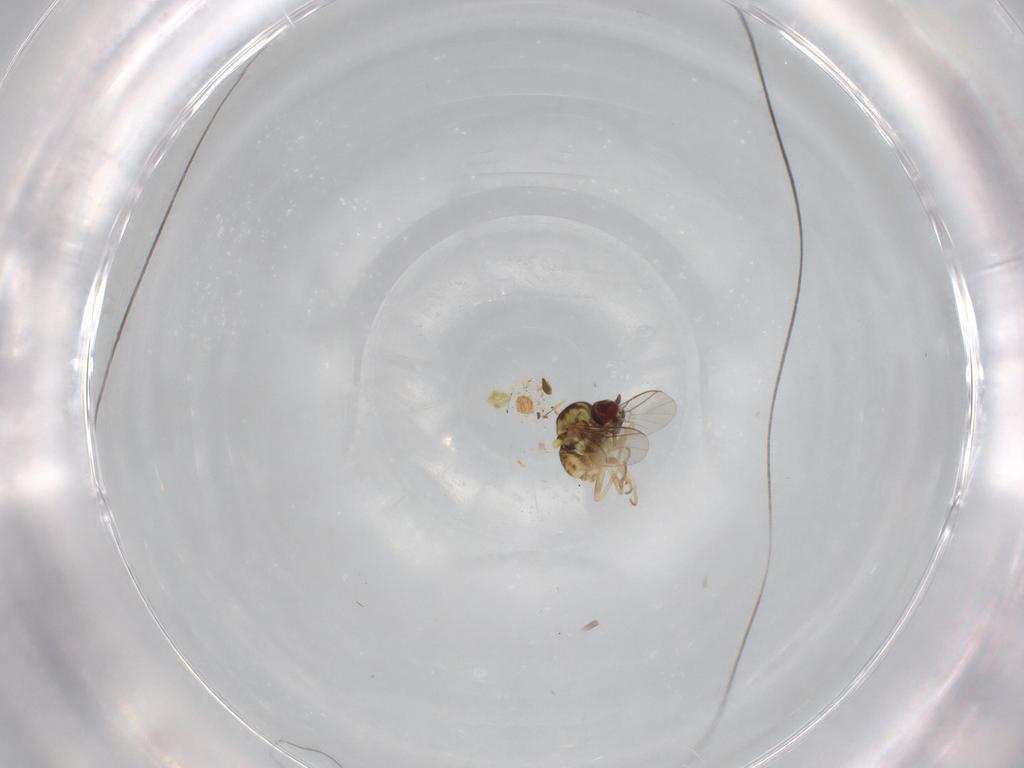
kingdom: Animalia
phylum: Arthropoda
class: Insecta
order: Diptera
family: Bombyliidae
